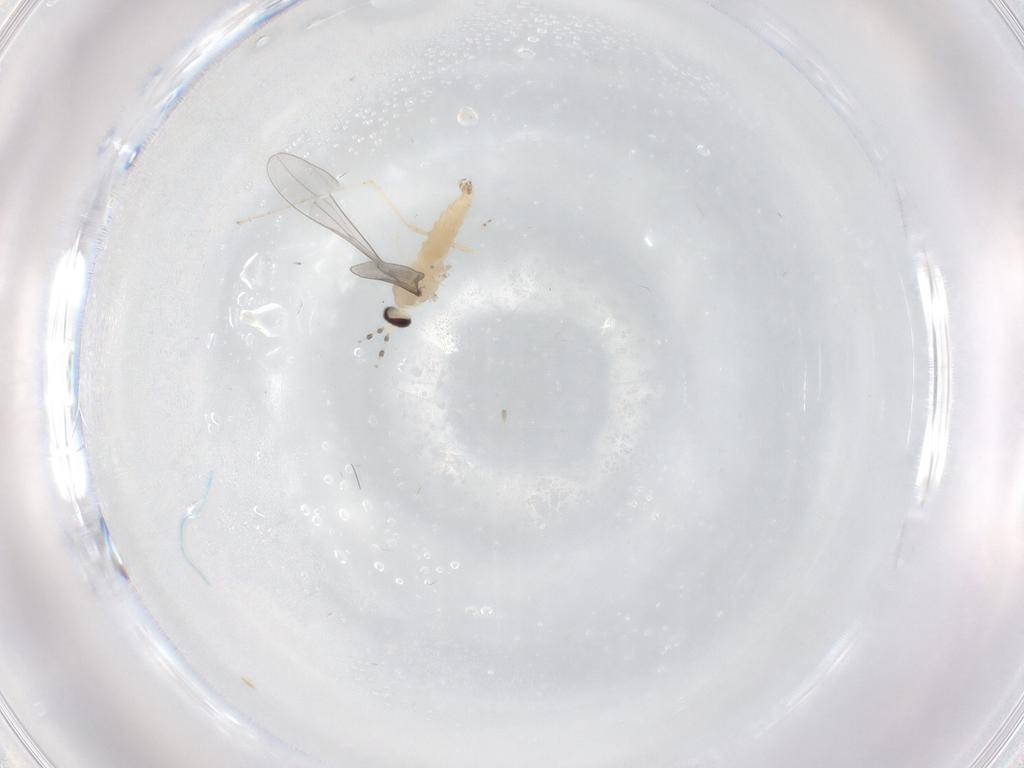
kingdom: Animalia
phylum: Arthropoda
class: Insecta
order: Diptera
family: Cecidomyiidae
